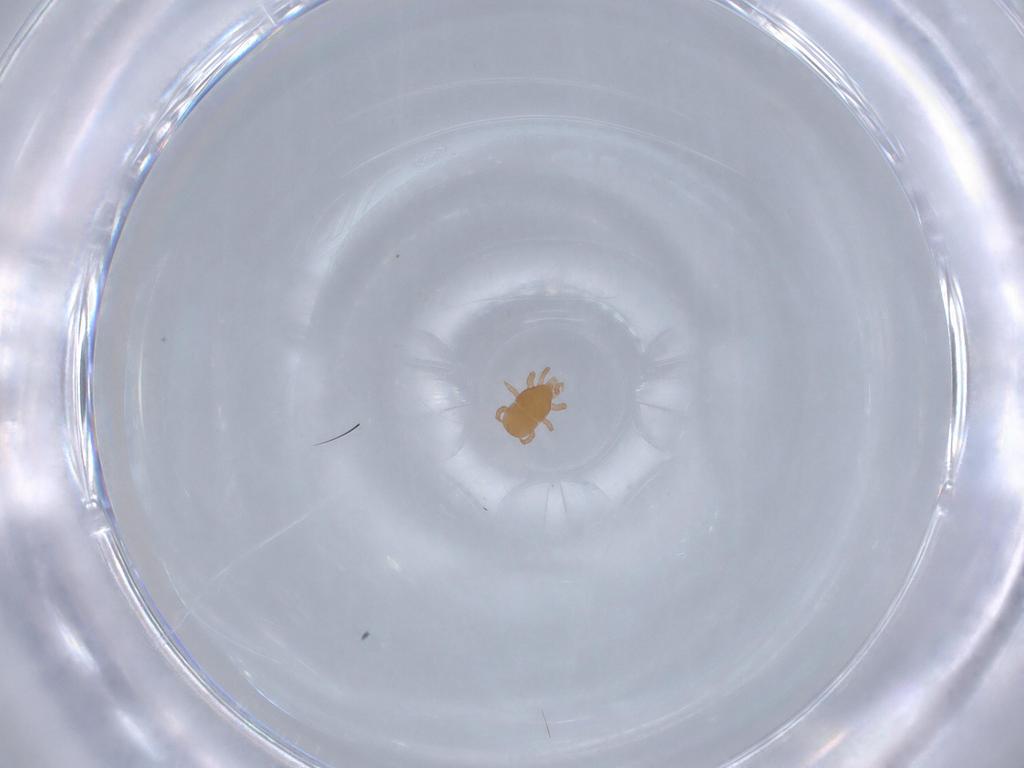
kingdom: Animalia
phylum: Arthropoda
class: Arachnida
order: Mesostigmata
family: Halolaelapidae
